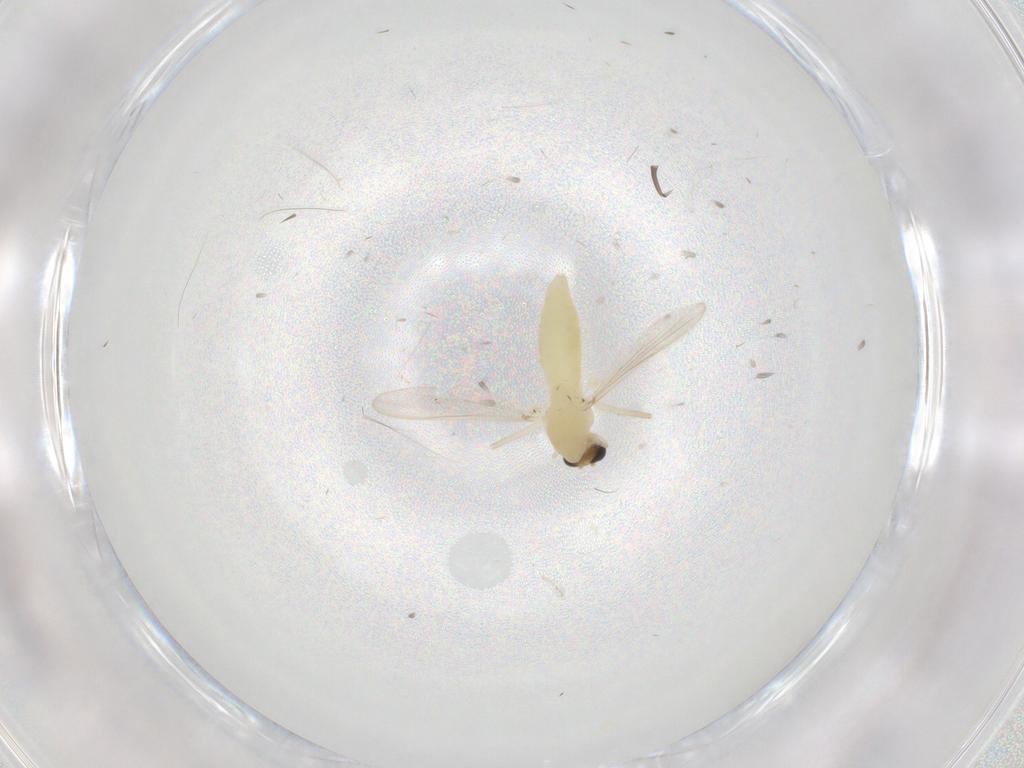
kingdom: Animalia
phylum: Arthropoda
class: Insecta
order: Diptera
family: Chironomidae
